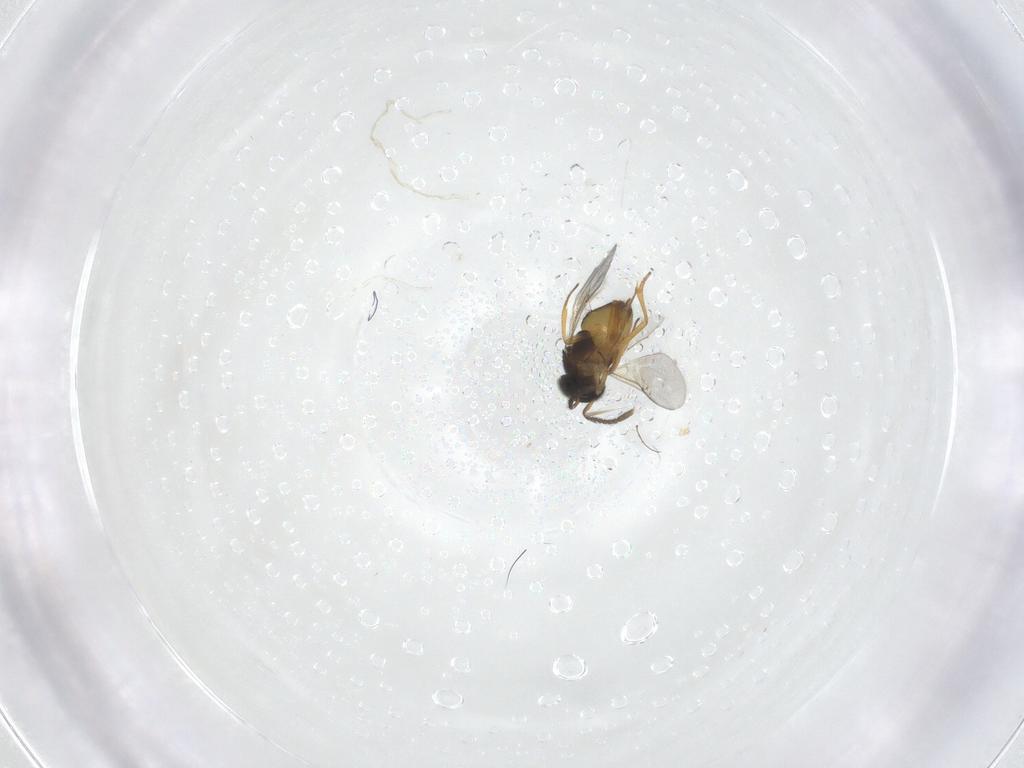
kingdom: Animalia
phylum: Arthropoda
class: Insecta
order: Hymenoptera
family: Encyrtidae
